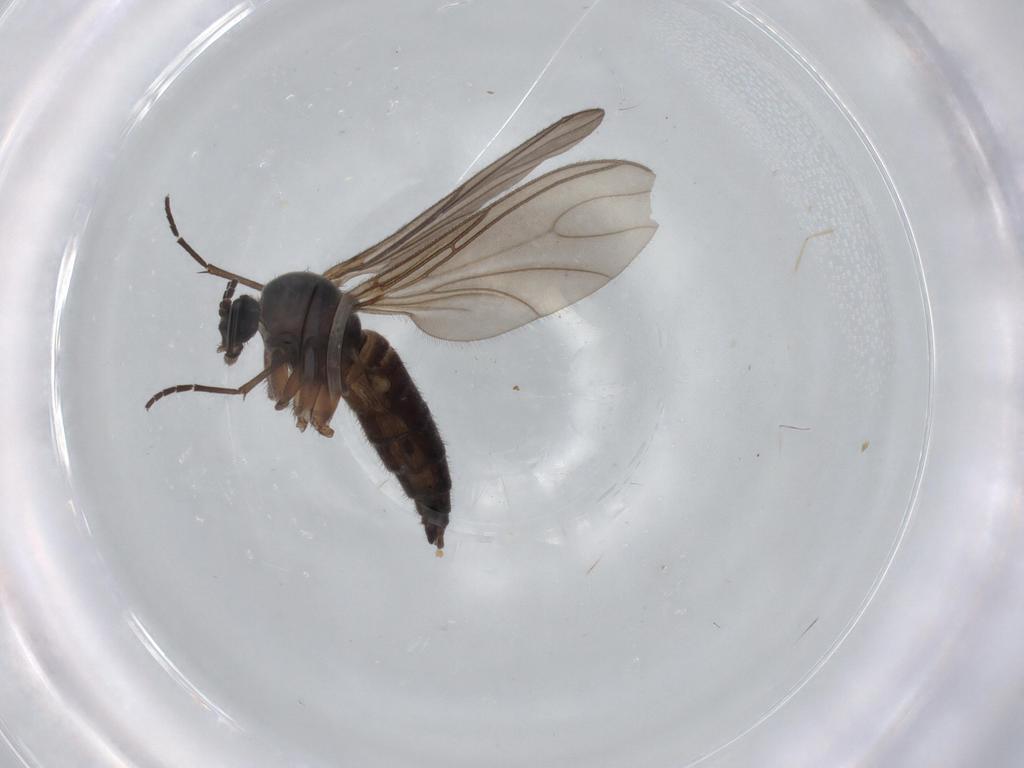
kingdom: Animalia
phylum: Arthropoda
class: Insecta
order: Diptera
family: Sciaridae
